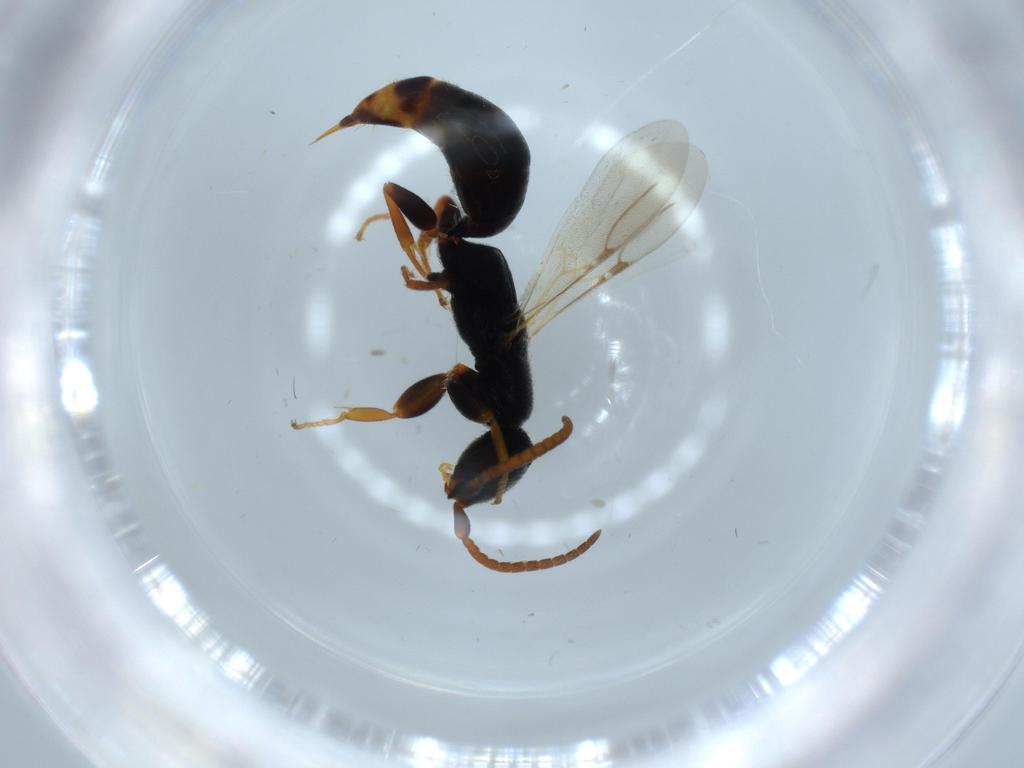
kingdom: Animalia
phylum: Arthropoda
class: Insecta
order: Hymenoptera
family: Bethylidae
